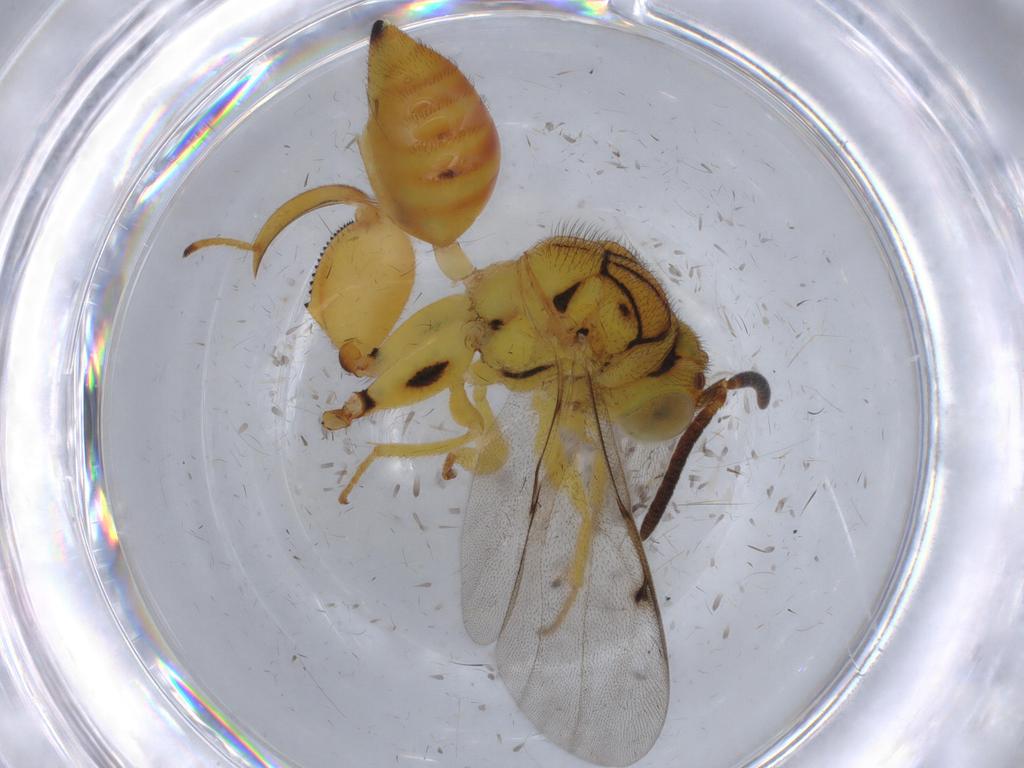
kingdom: Animalia
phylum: Arthropoda
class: Insecta
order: Hymenoptera
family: Chalcididae
